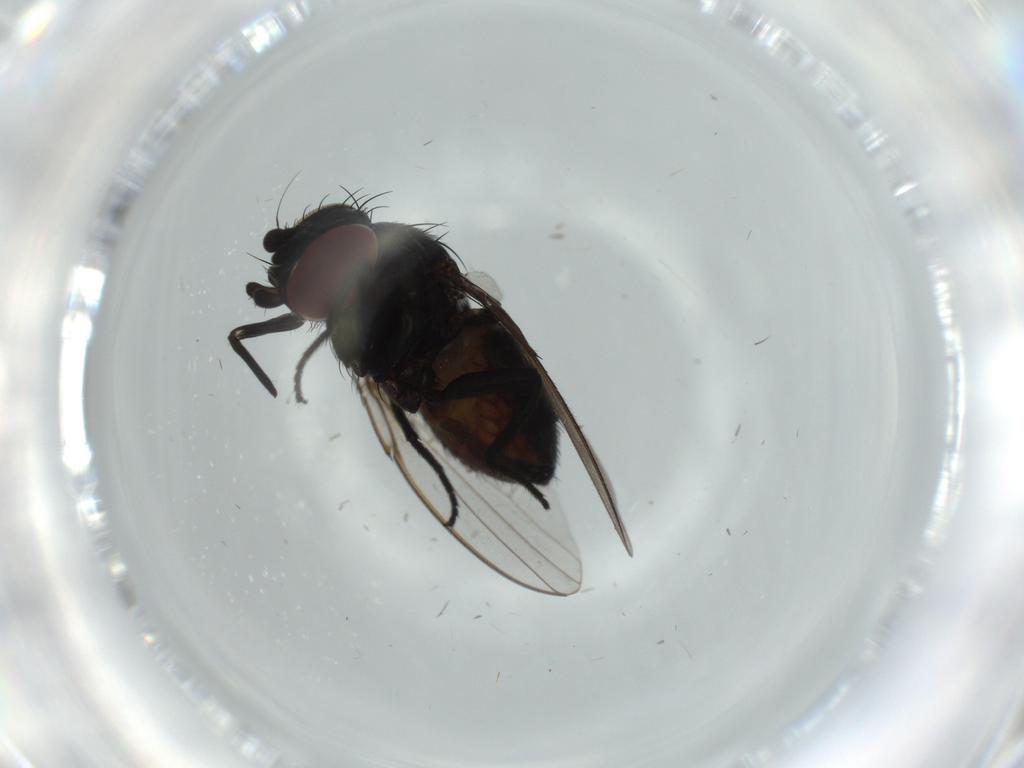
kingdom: Animalia
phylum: Arthropoda
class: Insecta
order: Diptera
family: Milichiidae
